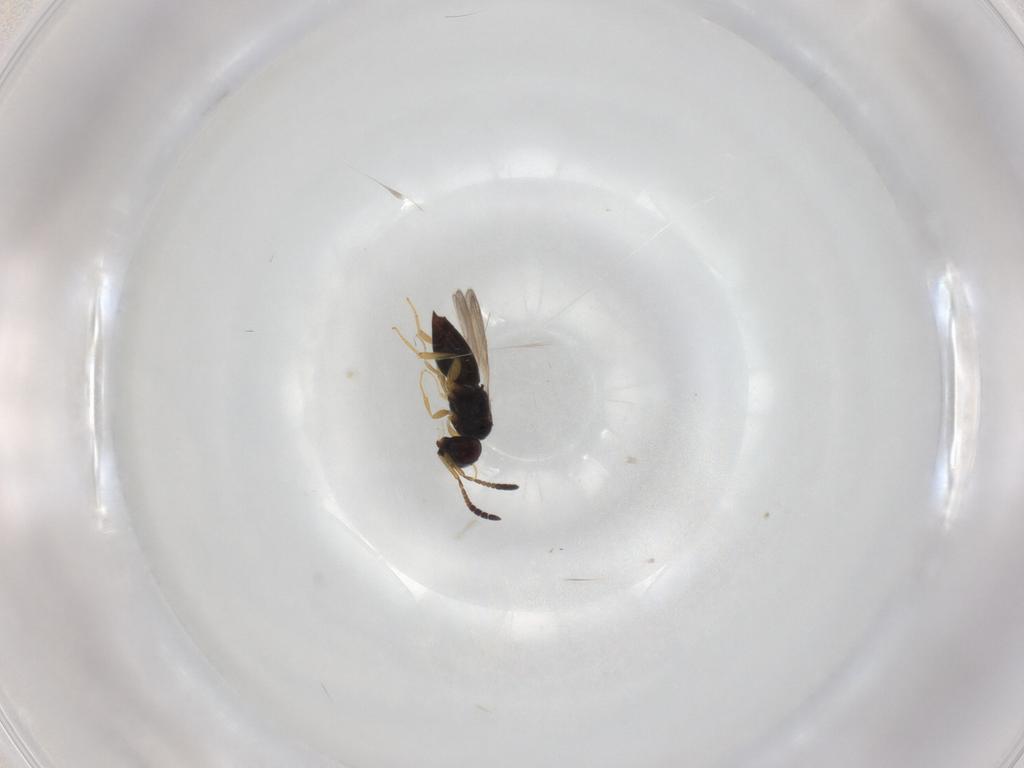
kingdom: Animalia
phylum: Arthropoda
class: Insecta
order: Hymenoptera
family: Ceraphronidae
